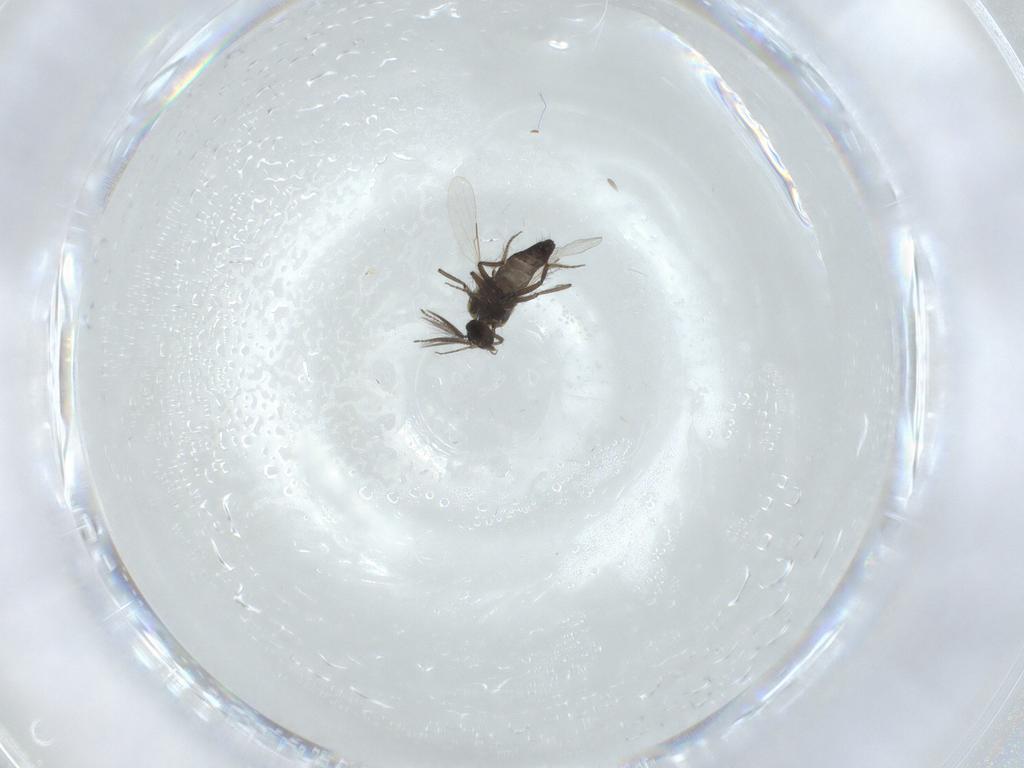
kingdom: Animalia
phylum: Arthropoda
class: Insecta
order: Diptera
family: Ceratopogonidae
